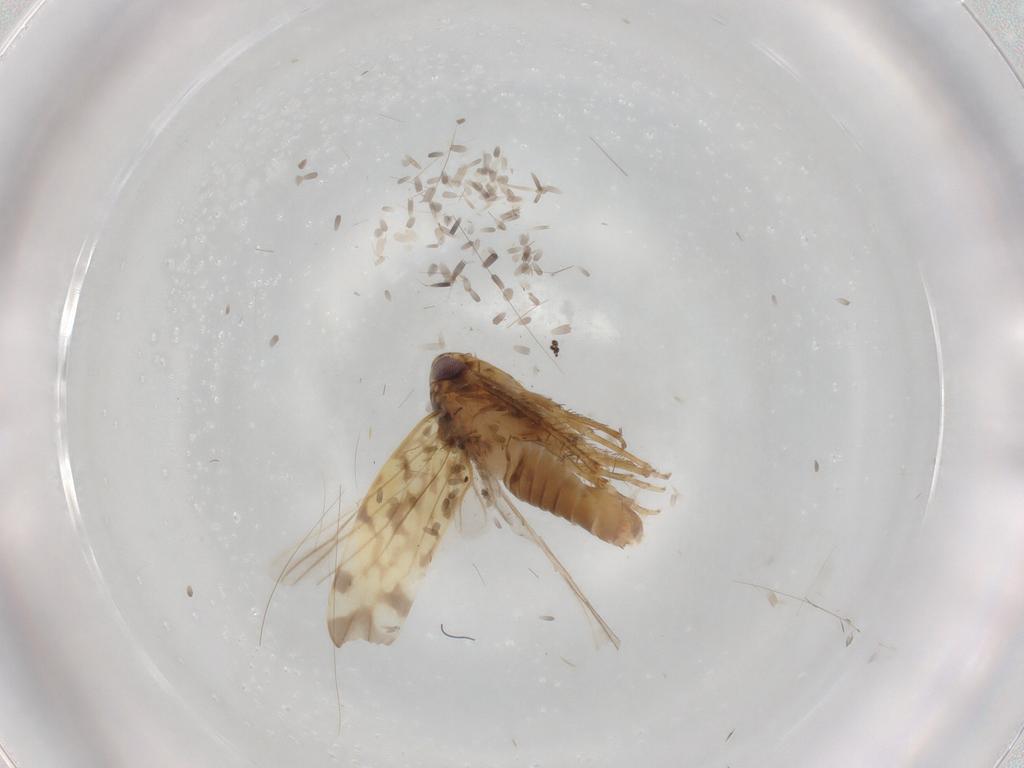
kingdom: Animalia
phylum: Arthropoda
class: Insecta
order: Hemiptera
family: Cicadellidae
